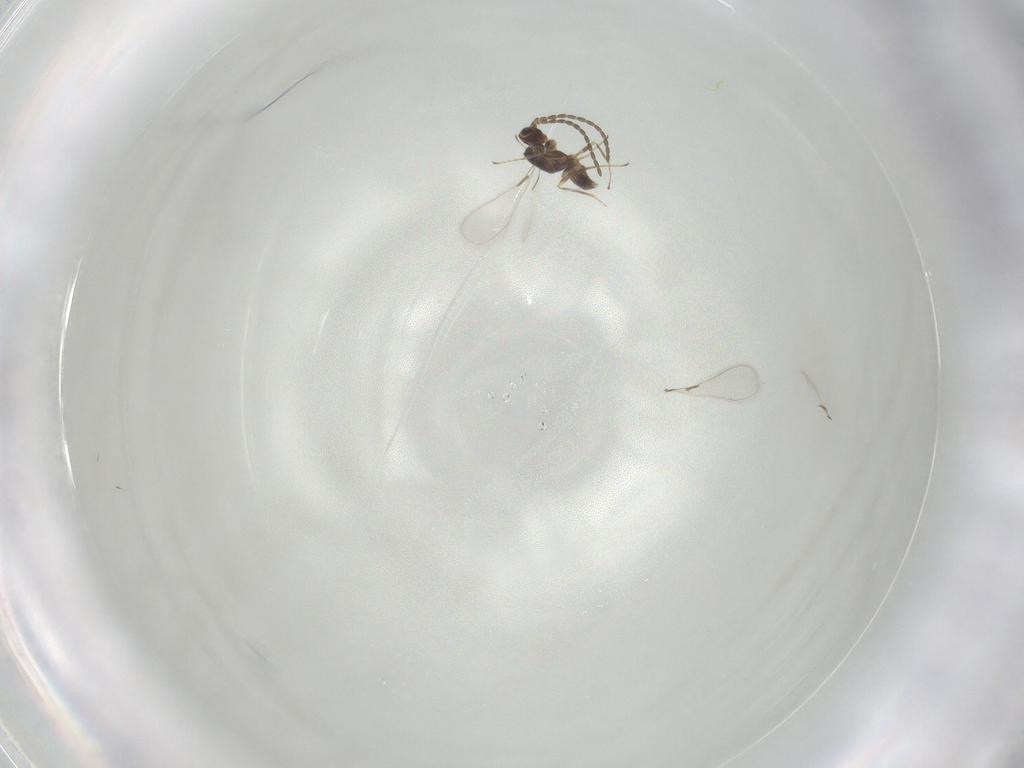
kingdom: Animalia
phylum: Arthropoda
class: Insecta
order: Hymenoptera
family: Mymaridae
